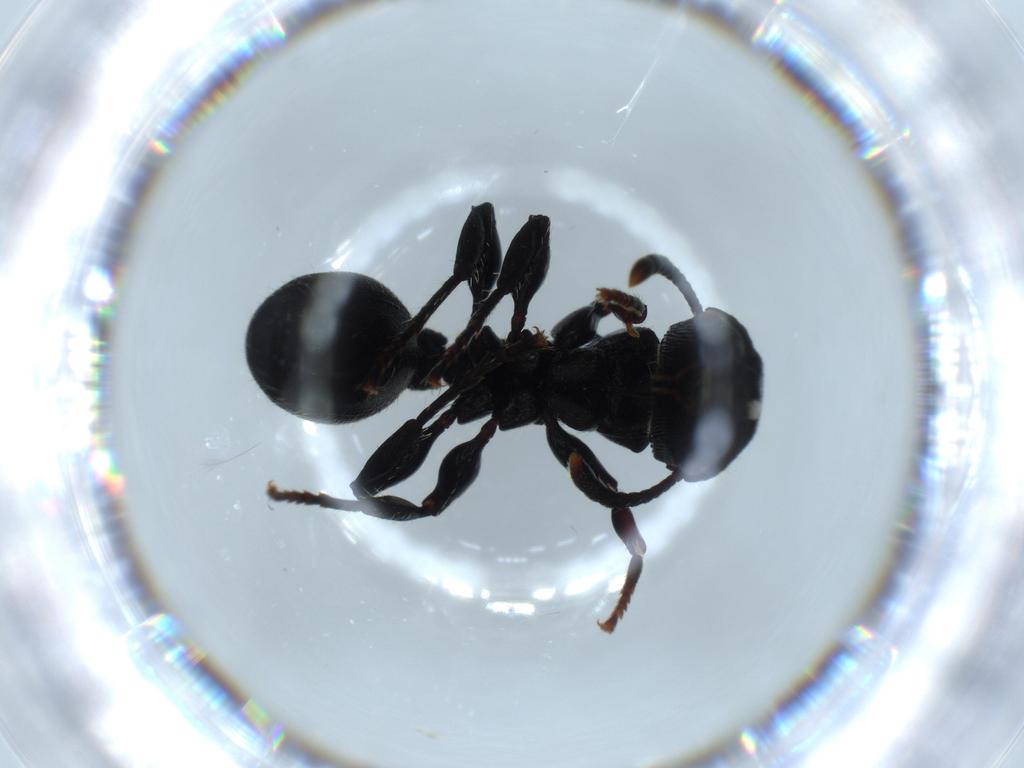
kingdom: Animalia
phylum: Arthropoda
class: Insecta
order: Hymenoptera
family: Formicidae
